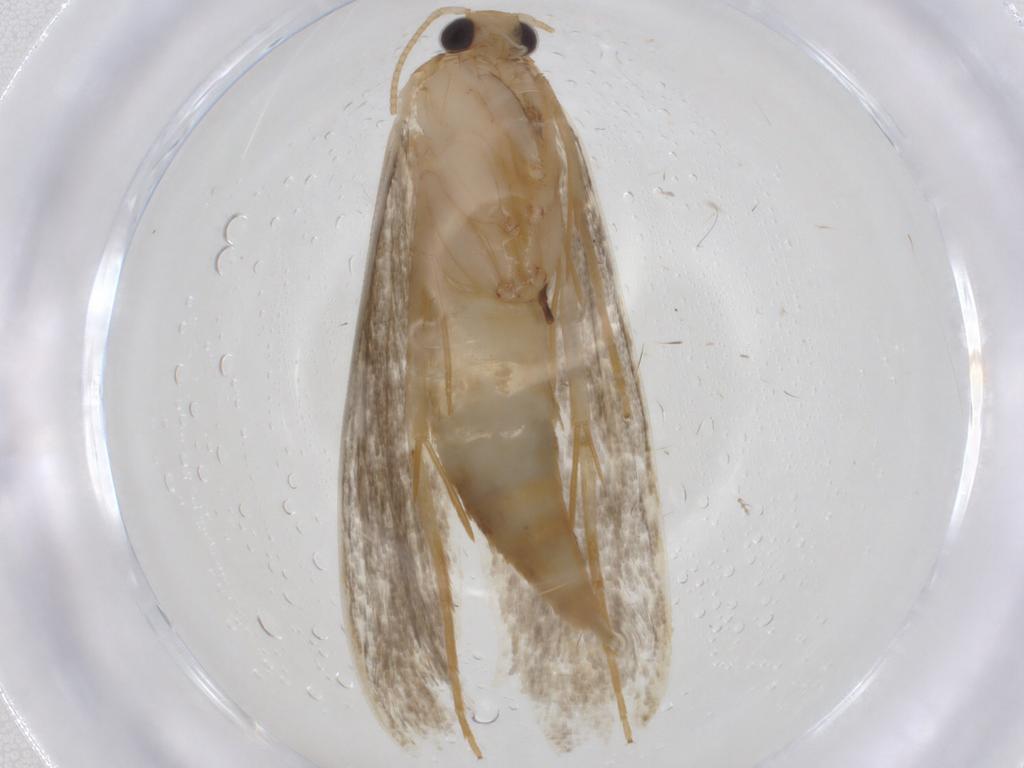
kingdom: Animalia
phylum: Arthropoda
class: Insecta
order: Lepidoptera
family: Tineidae
